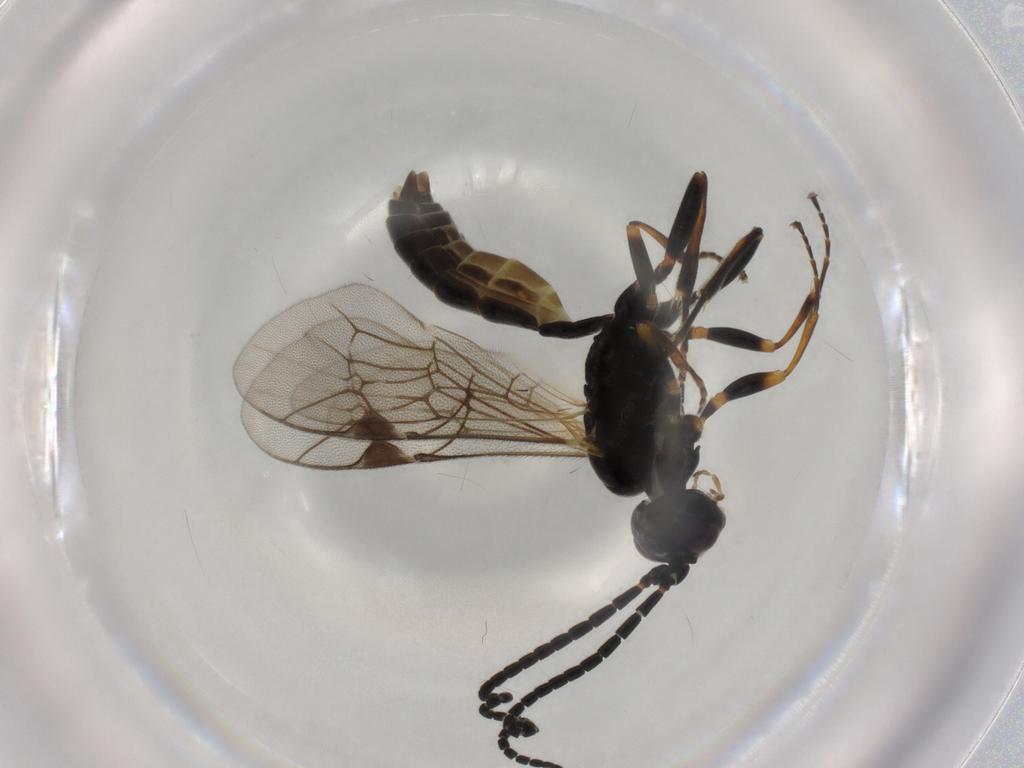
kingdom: Animalia
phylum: Arthropoda
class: Insecta
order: Hymenoptera
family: Ichneumonidae
